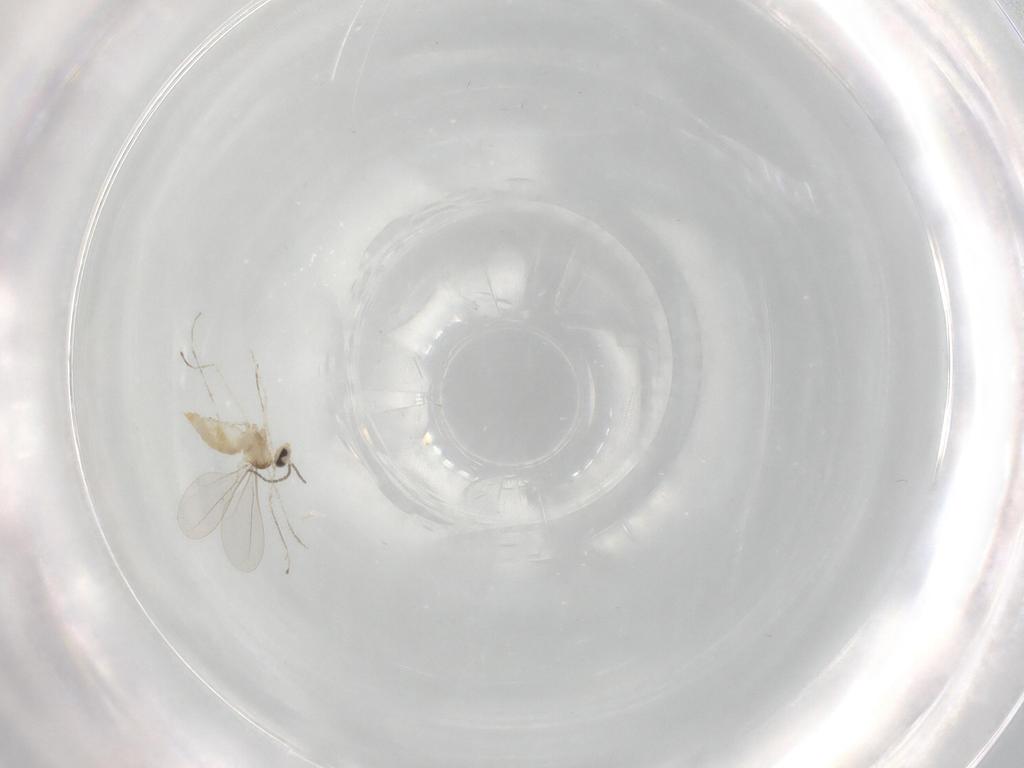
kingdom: Animalia
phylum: Arthropoda
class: Insecta
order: Diptera
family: Cecidomyiidae
